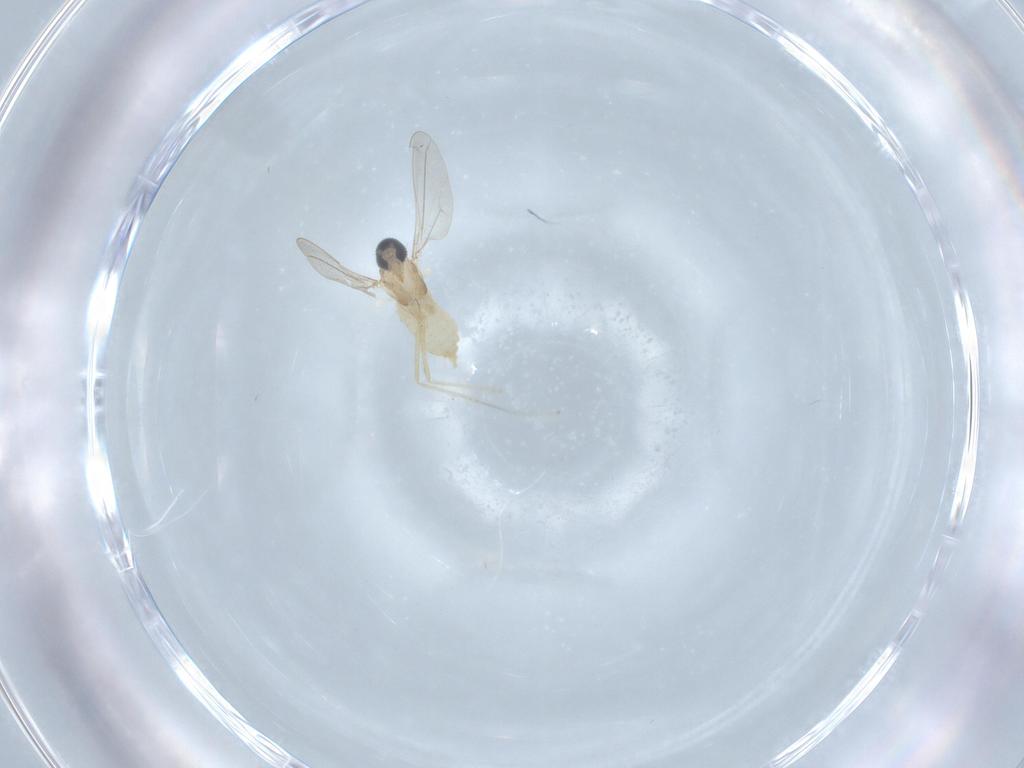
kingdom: Animalia
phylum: Arthropoda
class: Insecta
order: Diptera
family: Cecidomyiidae
